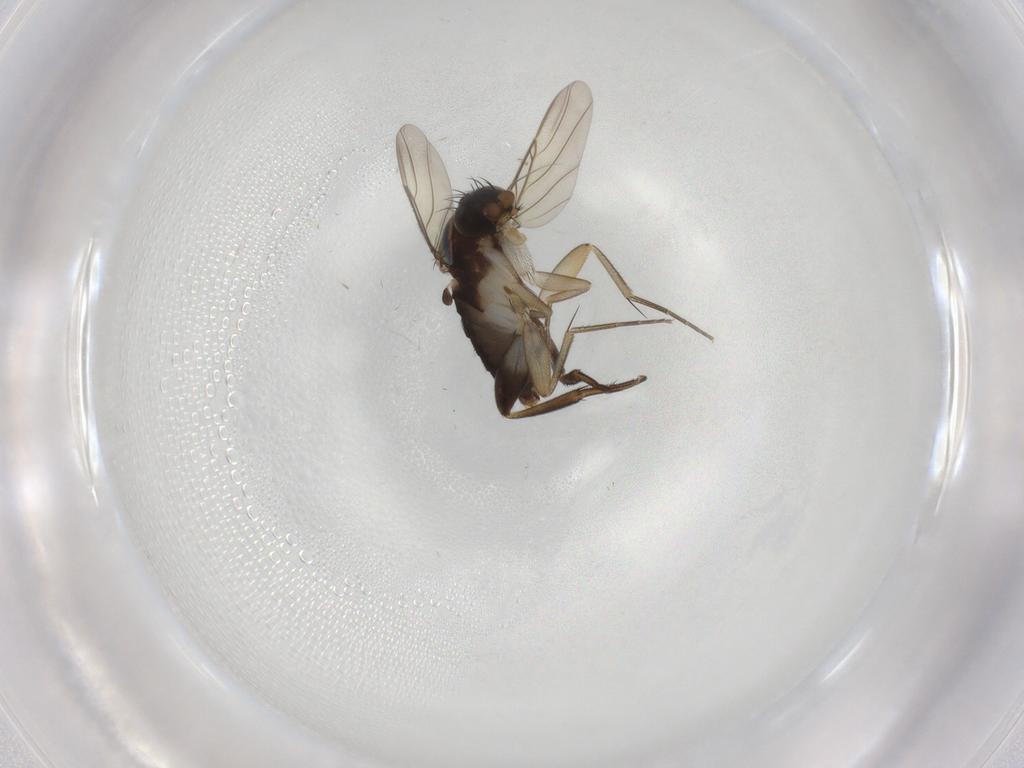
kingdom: Animalia
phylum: Arthropoda
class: Insecta
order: Diptera
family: Phoridae
